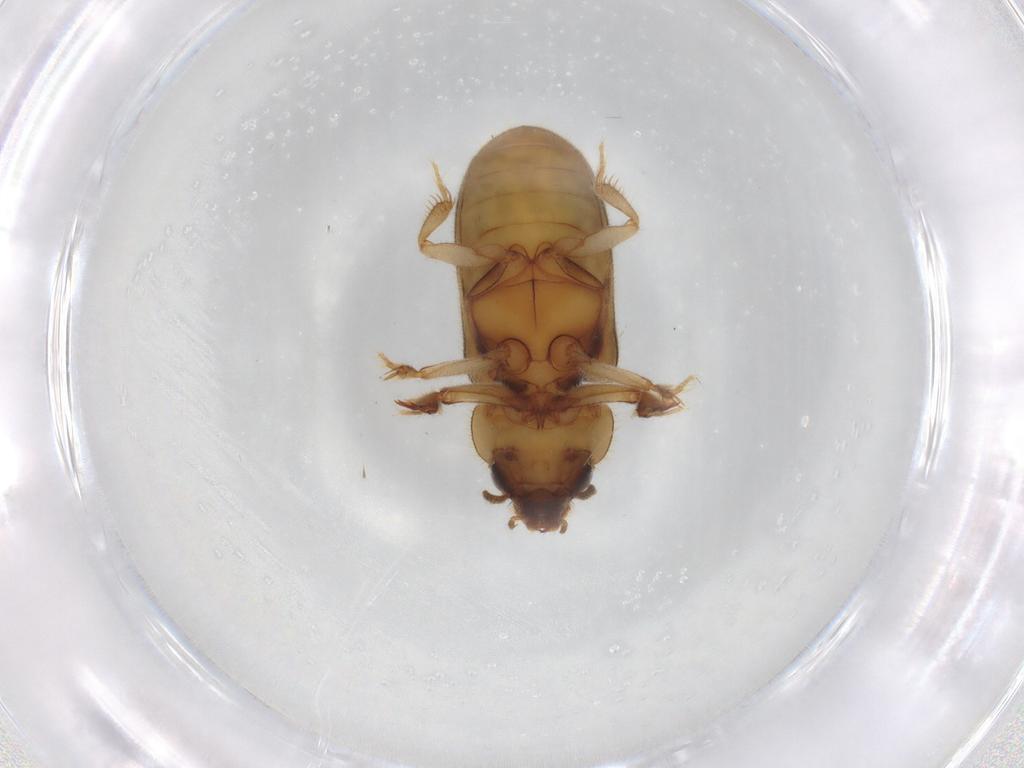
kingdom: Animalia
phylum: Arthropoda
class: Insecta
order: Coleoptera
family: Heteroceridae
